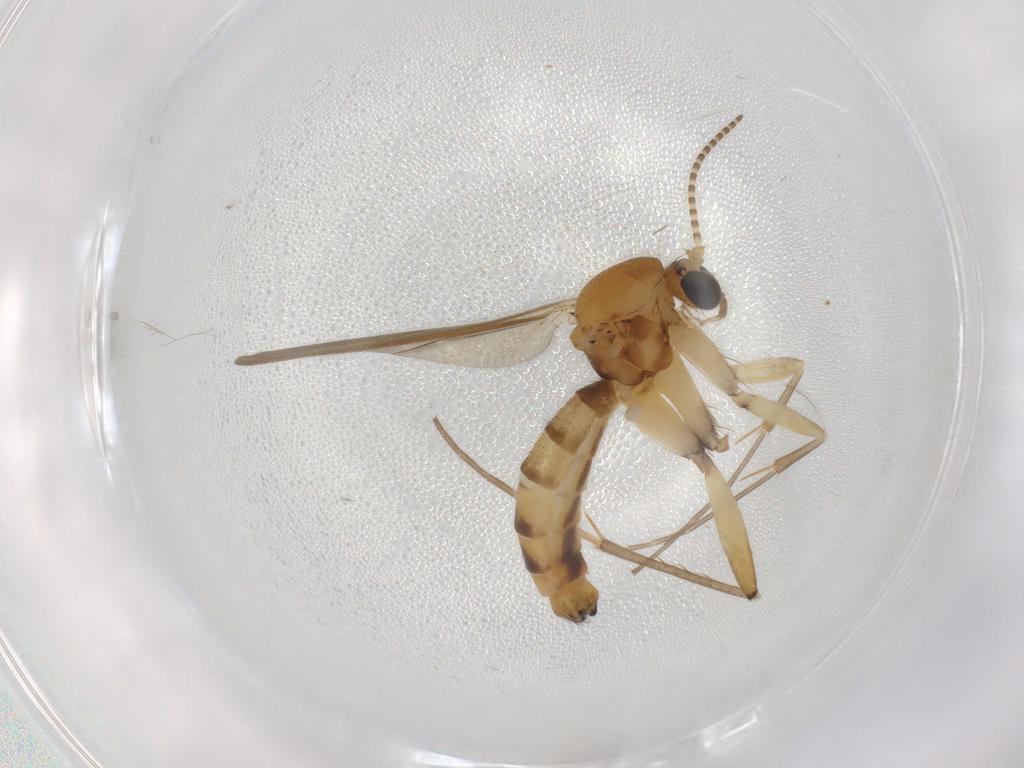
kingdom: Animalia
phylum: Arthropoda
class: Insecta
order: Diptera
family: Mycetophilidae
